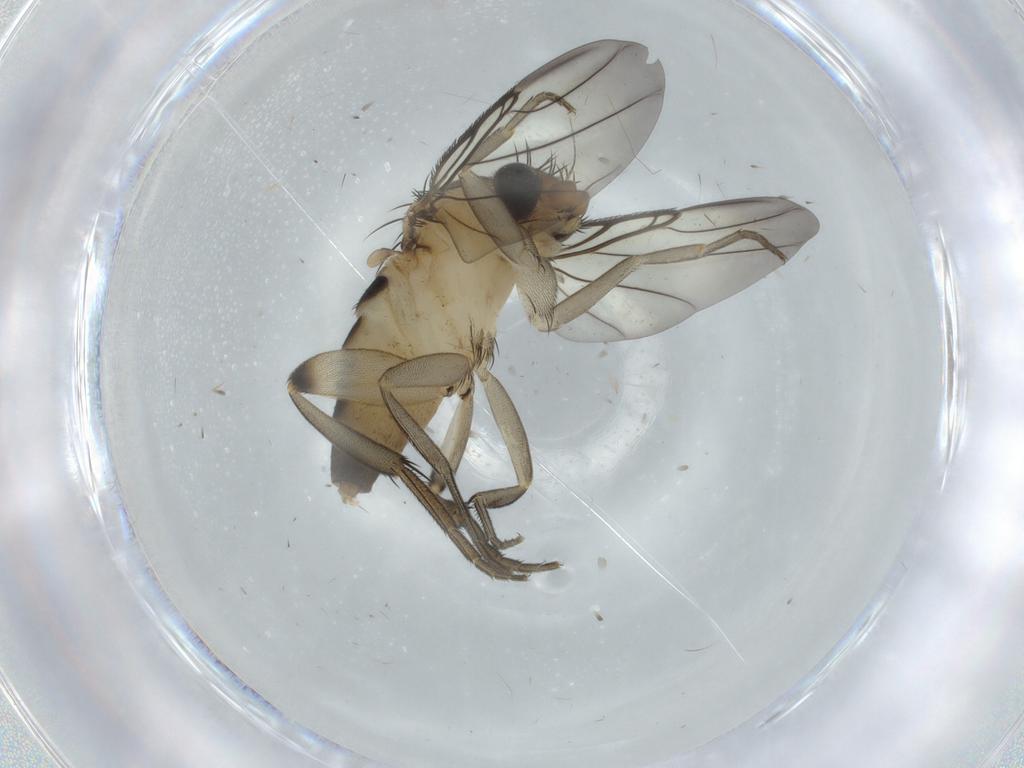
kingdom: Animalia
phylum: Arthropoda
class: Insecta
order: Diptera
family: Phoridae
